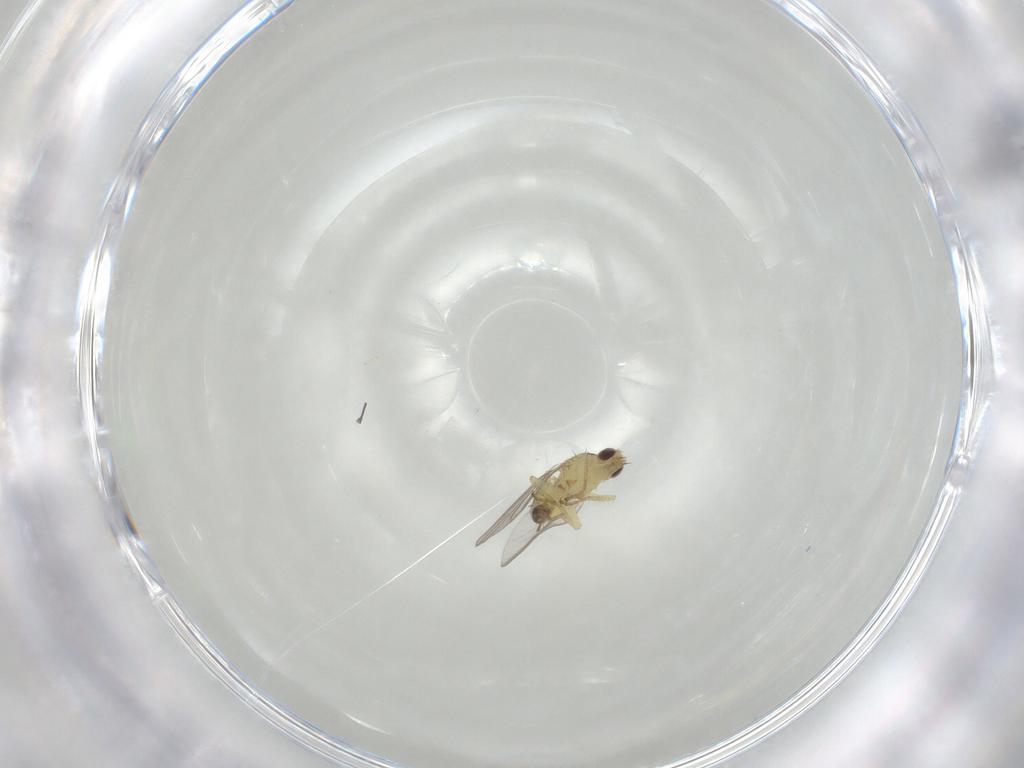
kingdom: Animalia
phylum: Arthropoda
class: Insecta
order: Diptera
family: Agromyzidae
